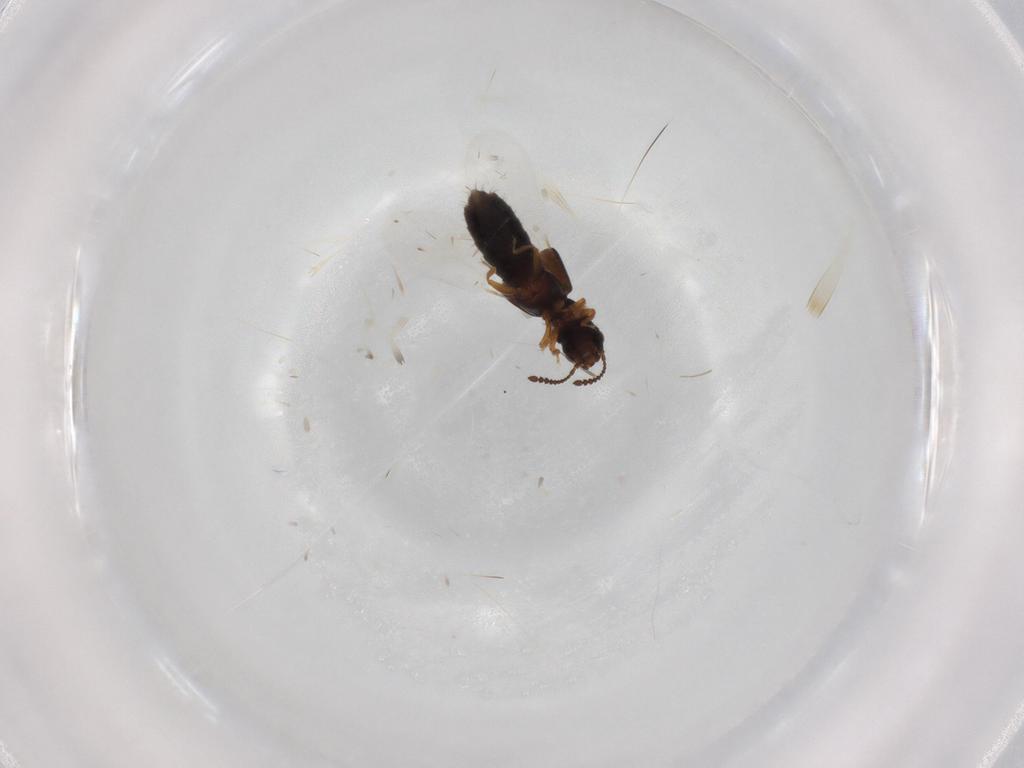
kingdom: Animalia
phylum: Arthropoda
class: Insecta
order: Coleoptera
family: Staphylinidae
